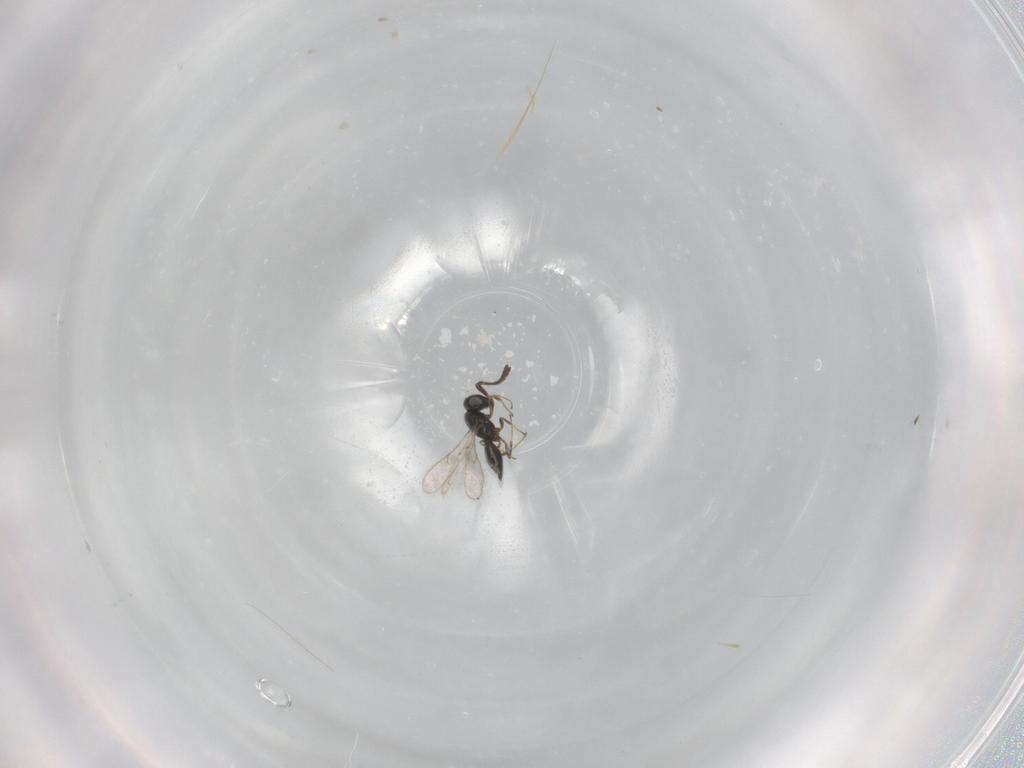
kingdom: Animalia
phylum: Arthropoda
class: Insecta
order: Hymenoptera
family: Scelionidae
